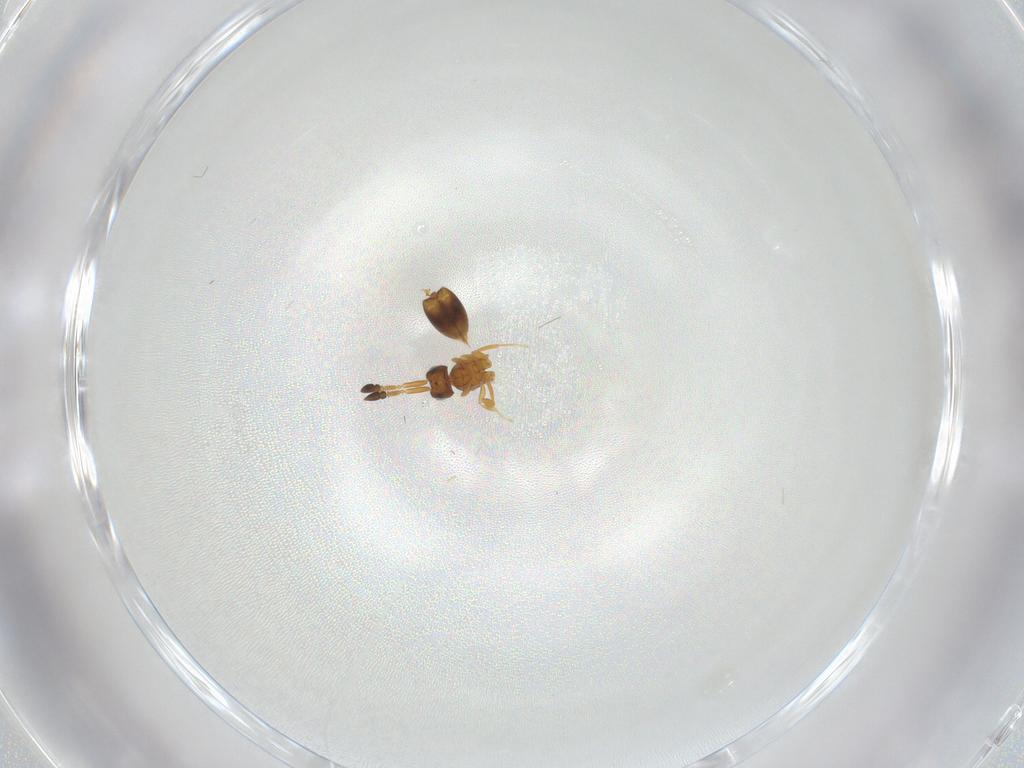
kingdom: Animalia
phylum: Arthropoda
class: Insecta
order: Coleoptera
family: Staphylinidae
